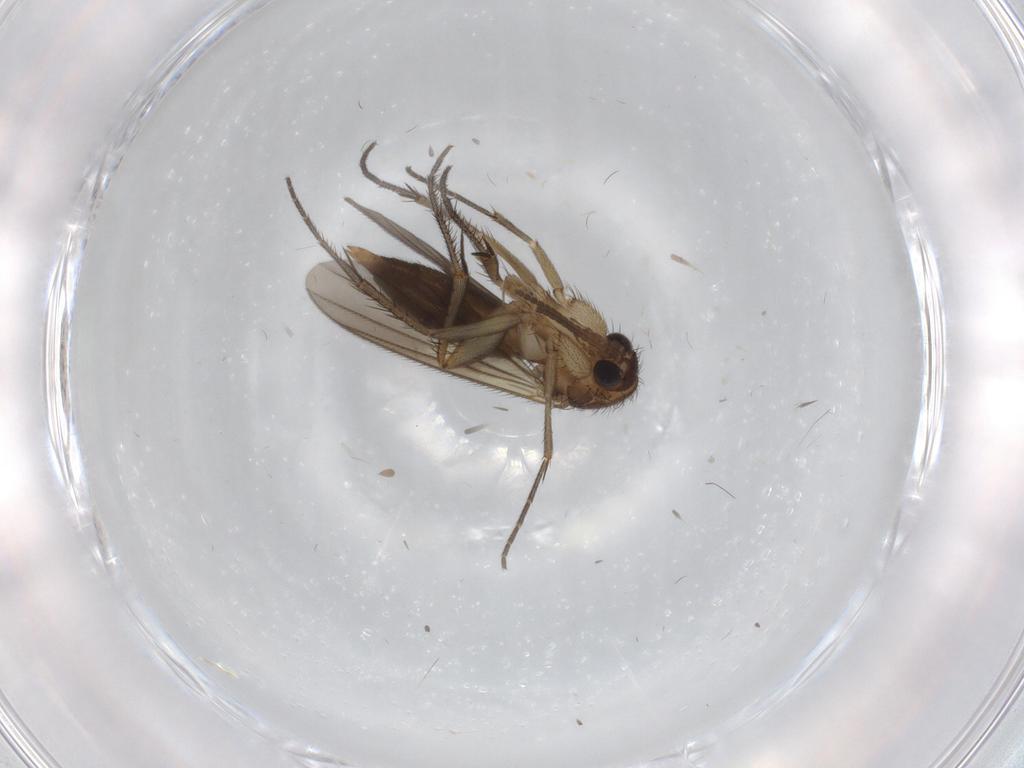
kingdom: Animalia
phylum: Arthropoda
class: Insecta
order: Diptera
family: Mycetophilidae
